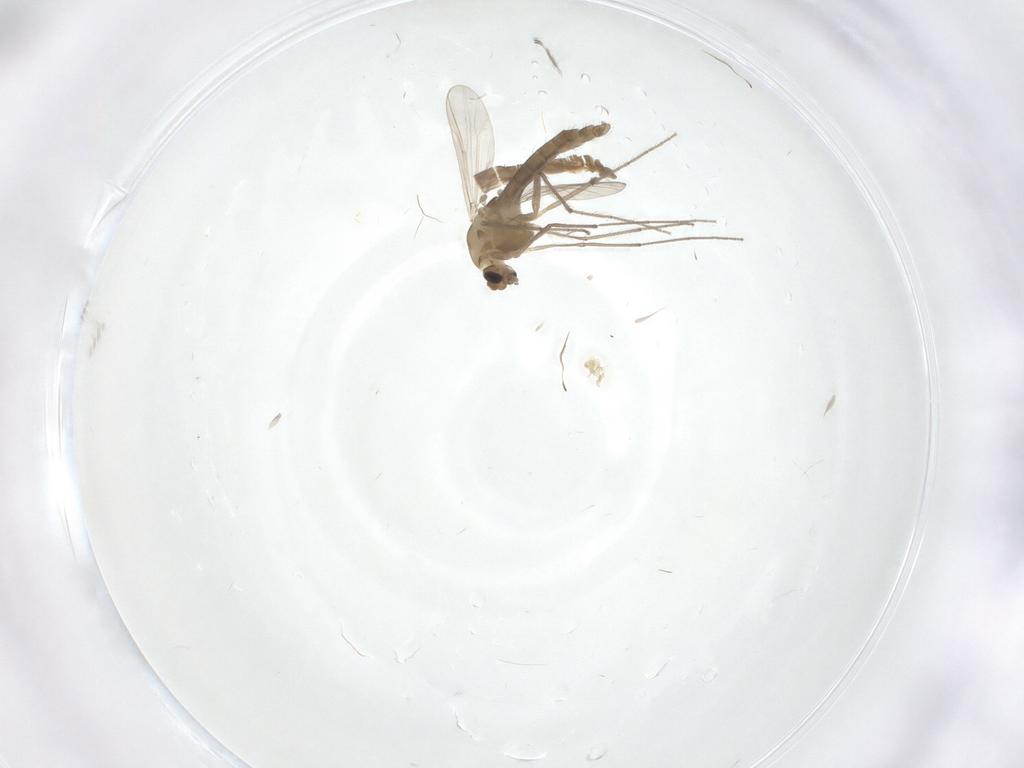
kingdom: Animalia
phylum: Arthropoda
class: Insecta
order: Diptera
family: Chironomidae
